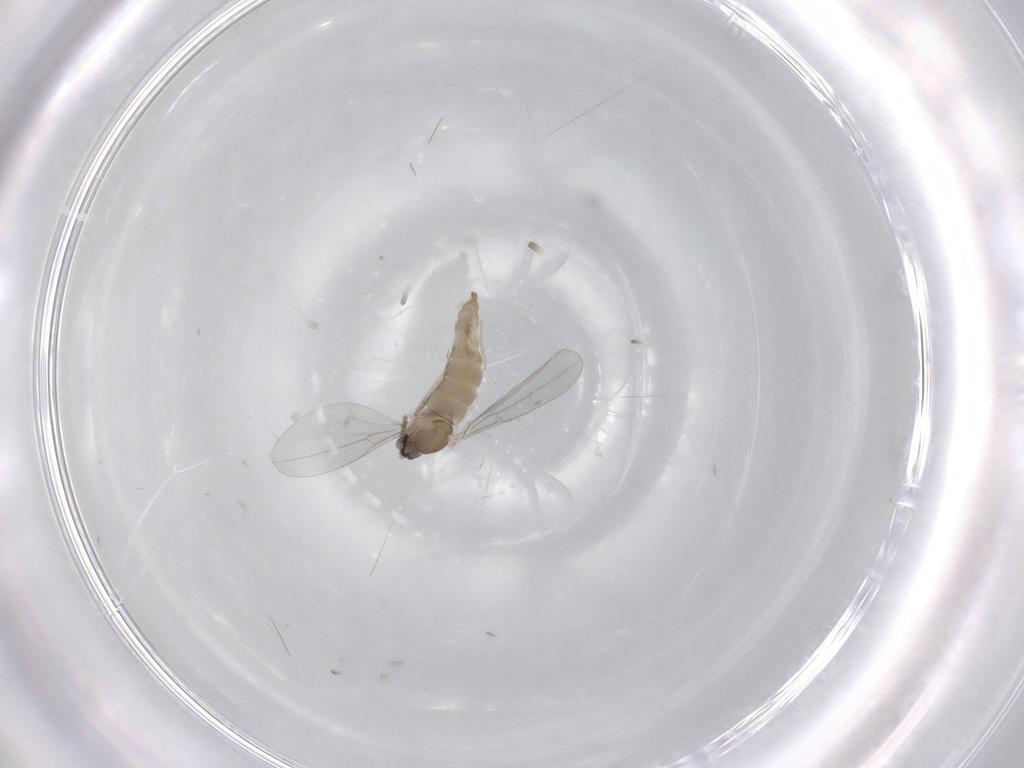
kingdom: Animalia
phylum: Arthropoda
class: Insecta
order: Diptera
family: Cecidomyiidae
